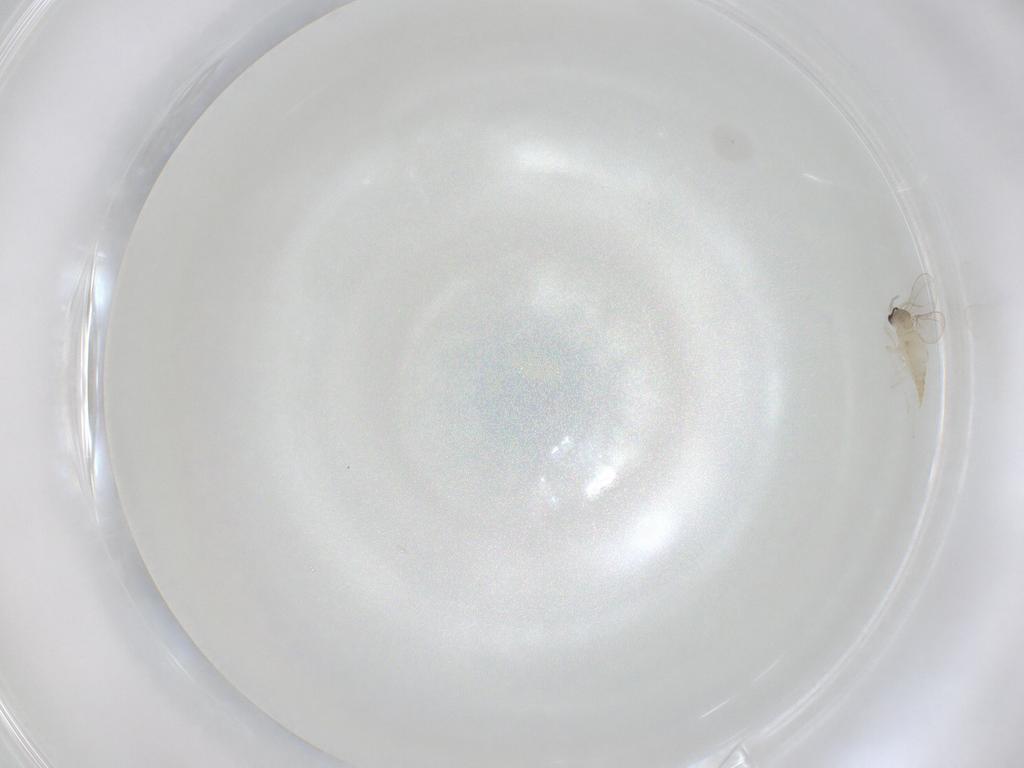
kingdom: Animalia
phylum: Arthropoda
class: Insecta
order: Diptera
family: Cecidomyiidae
